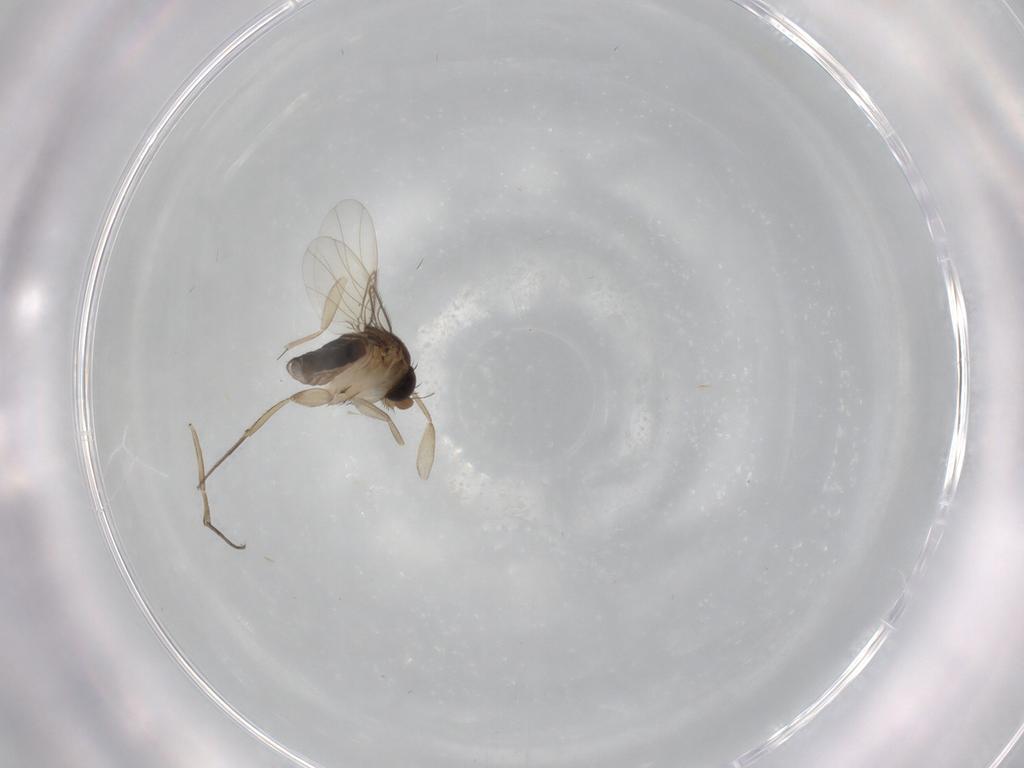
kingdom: Animalia
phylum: Arthropoda
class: Insecta
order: Diptera
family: Phoridae
